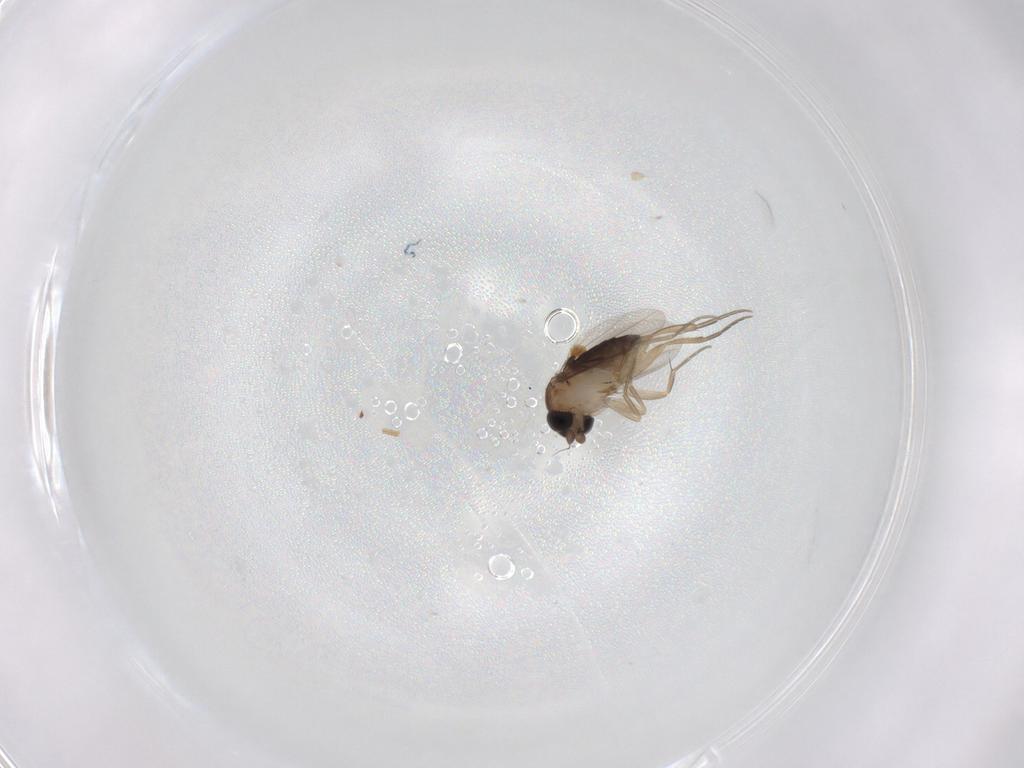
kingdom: Animalia
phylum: Arthropoda
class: Insecta
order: Diptera
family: Phoridae
